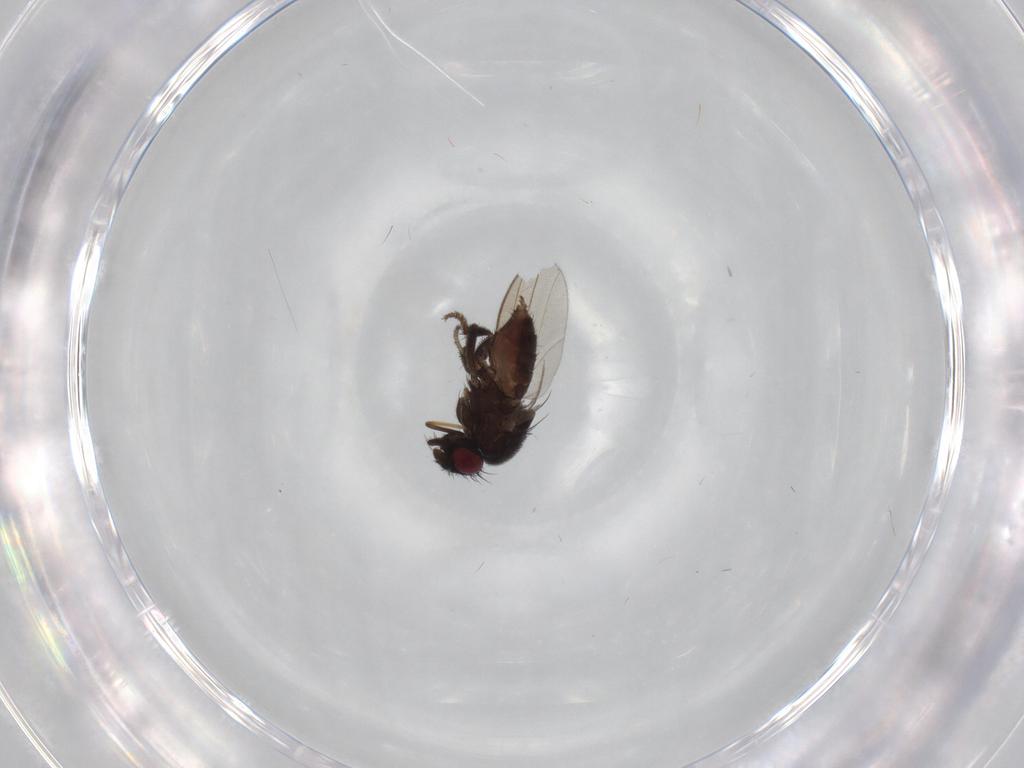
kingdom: Animalia
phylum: Arthropoda
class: Insecta
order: Diptera
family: Milichiidae
